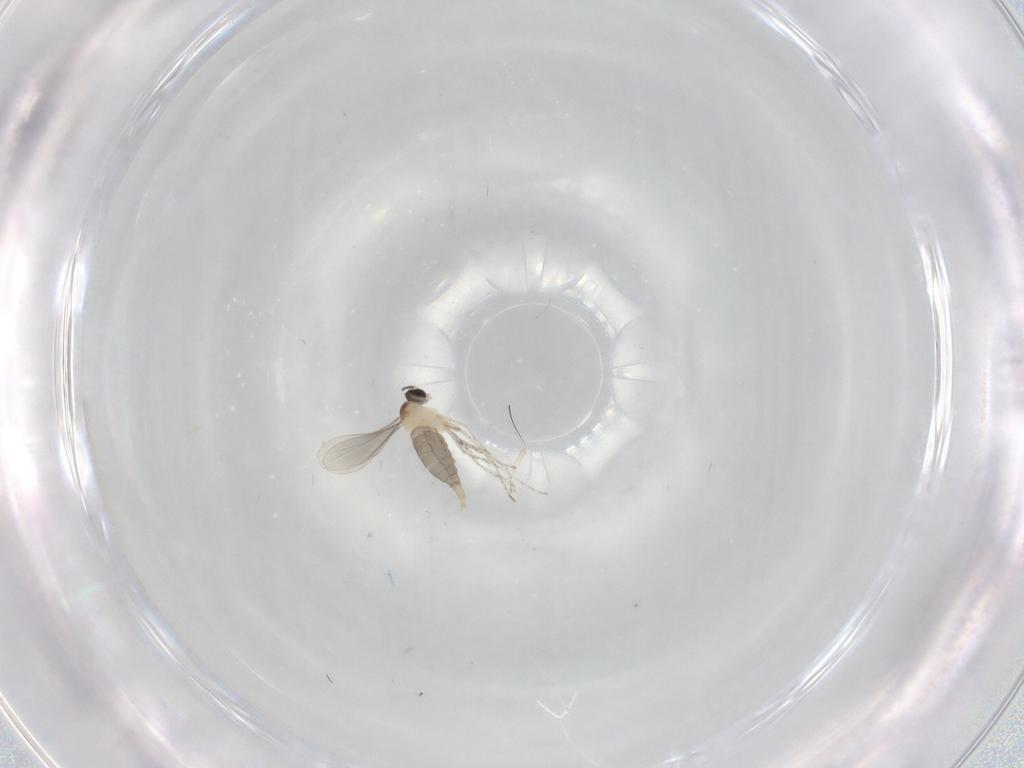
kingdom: Animalia
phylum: Arthropoda
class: Insecta
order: Diptera
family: Cecidomyiidae
